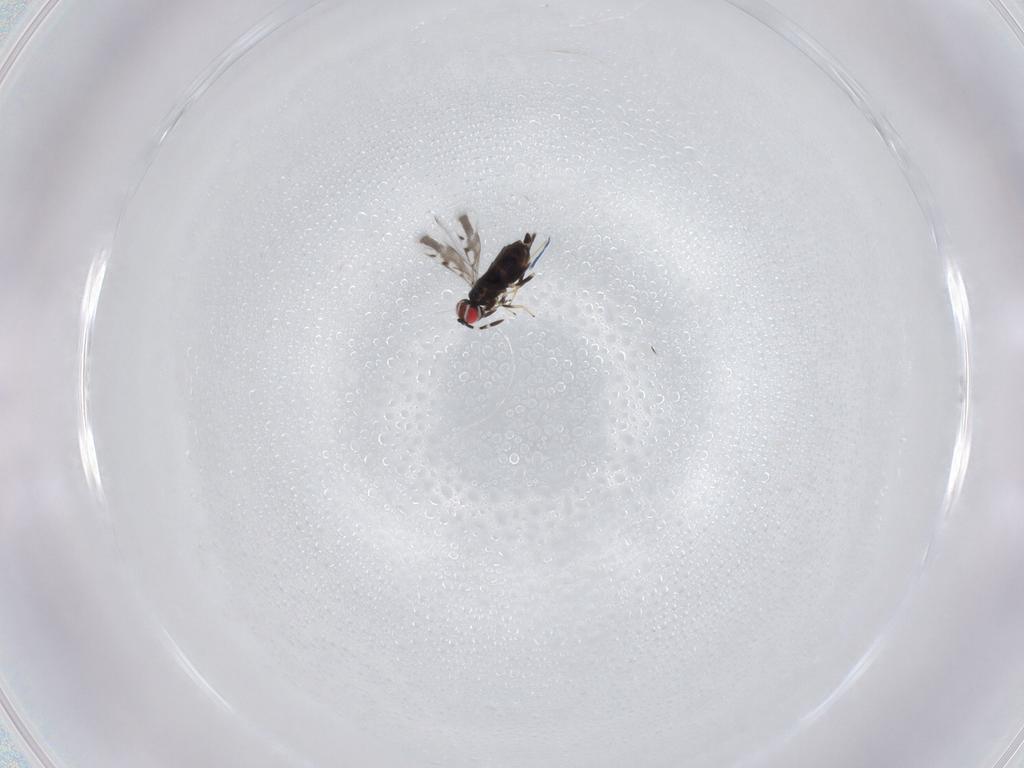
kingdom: Animalia
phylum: Arthropoda
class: Insecta
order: Hymenoptera
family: Azotidae
